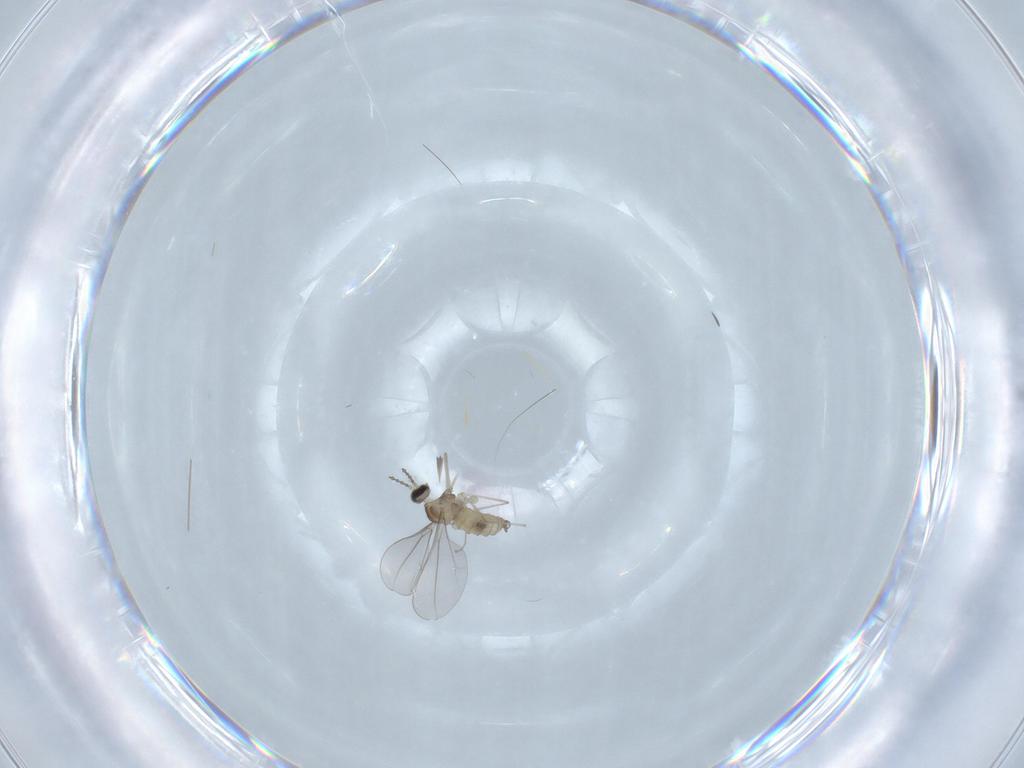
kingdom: Animalia
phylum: Arthropoda
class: Insecta
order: Diptera
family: Cecidomyiidae
